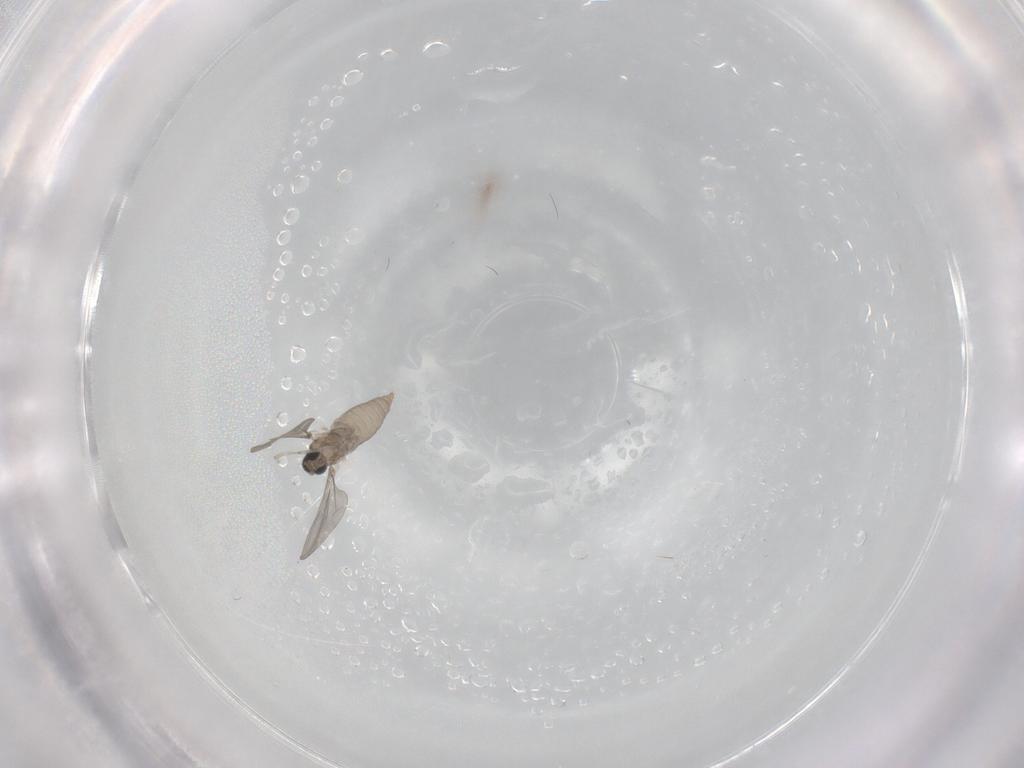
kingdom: Animalia
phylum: Arthropoda
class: Insecta
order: Diptera
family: Cecidomyiidae
